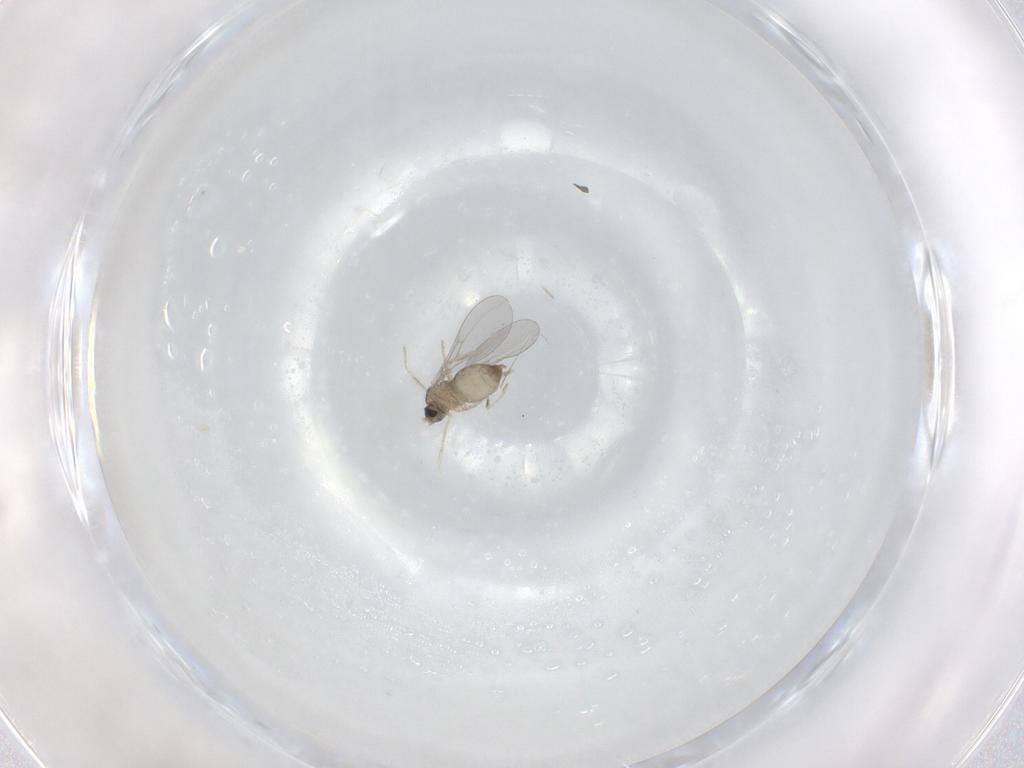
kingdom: Animalia
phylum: Arthropoda
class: Insecta
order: Diptera
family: Cecidomyiidae
